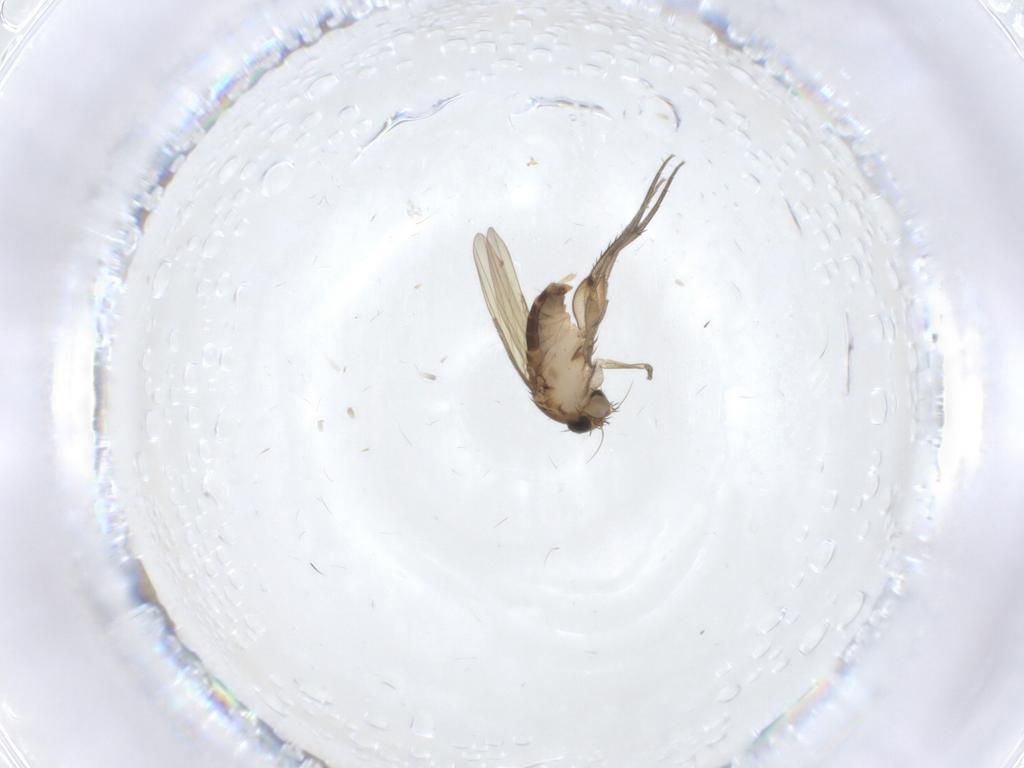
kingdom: Animalia
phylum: Arthropoda
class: Insecta
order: Diptera
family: Phoridae
